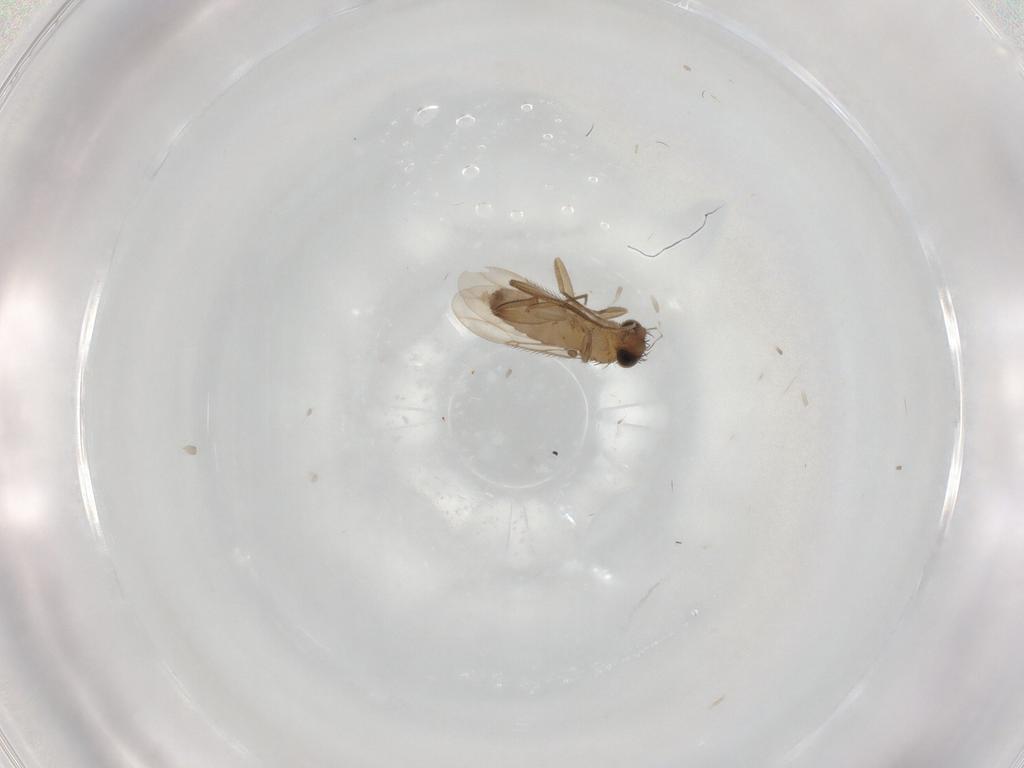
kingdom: Animalia
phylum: Arthropoda
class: Insecta
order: Diptera
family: Phoridae
